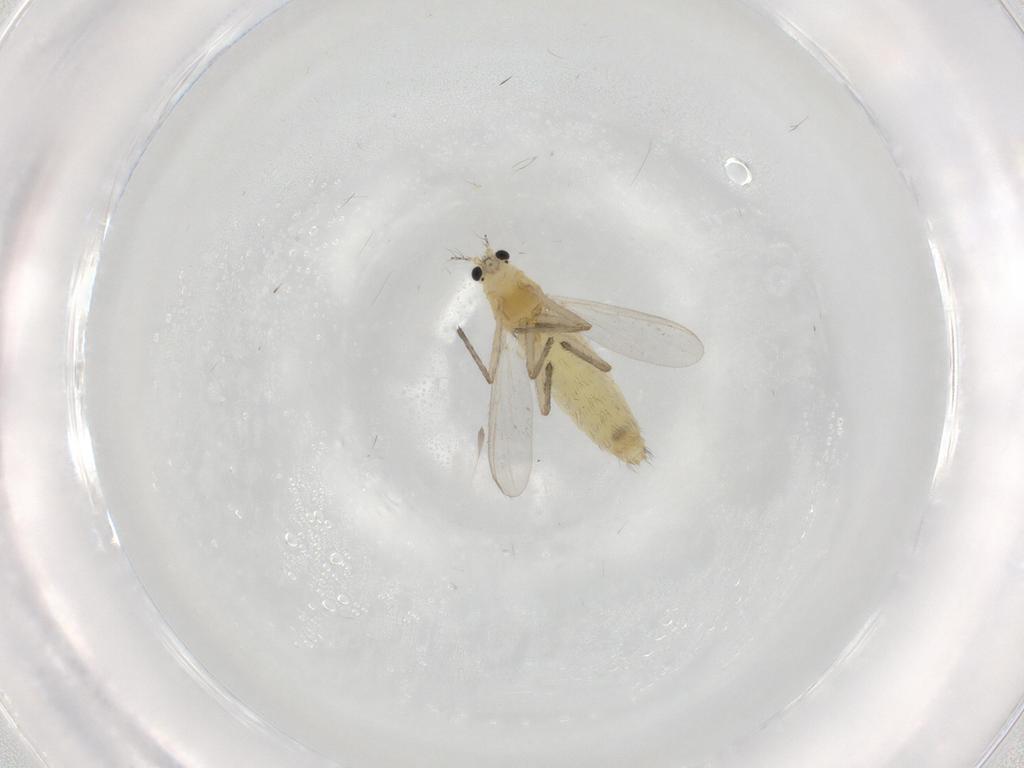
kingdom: Animalia
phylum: Arthropoda
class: Insecta
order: Diptera
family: Chironomidae
